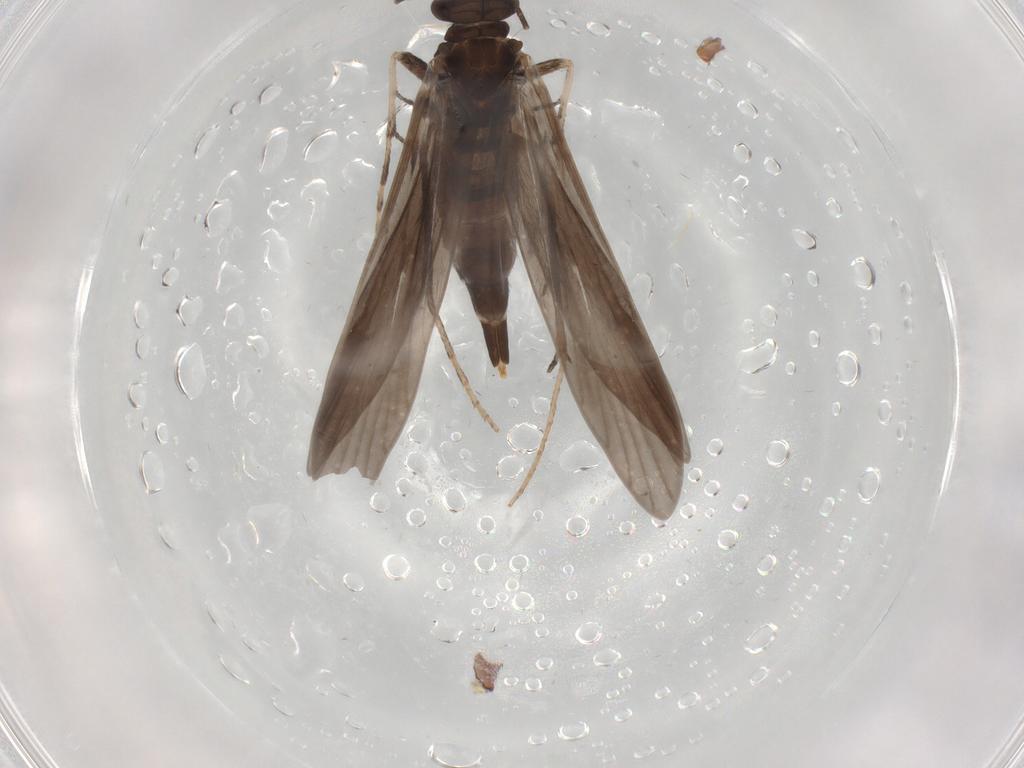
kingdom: Animalia
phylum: Arthropoda
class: Insecta
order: Trichoptera
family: Xiphocentronidae
